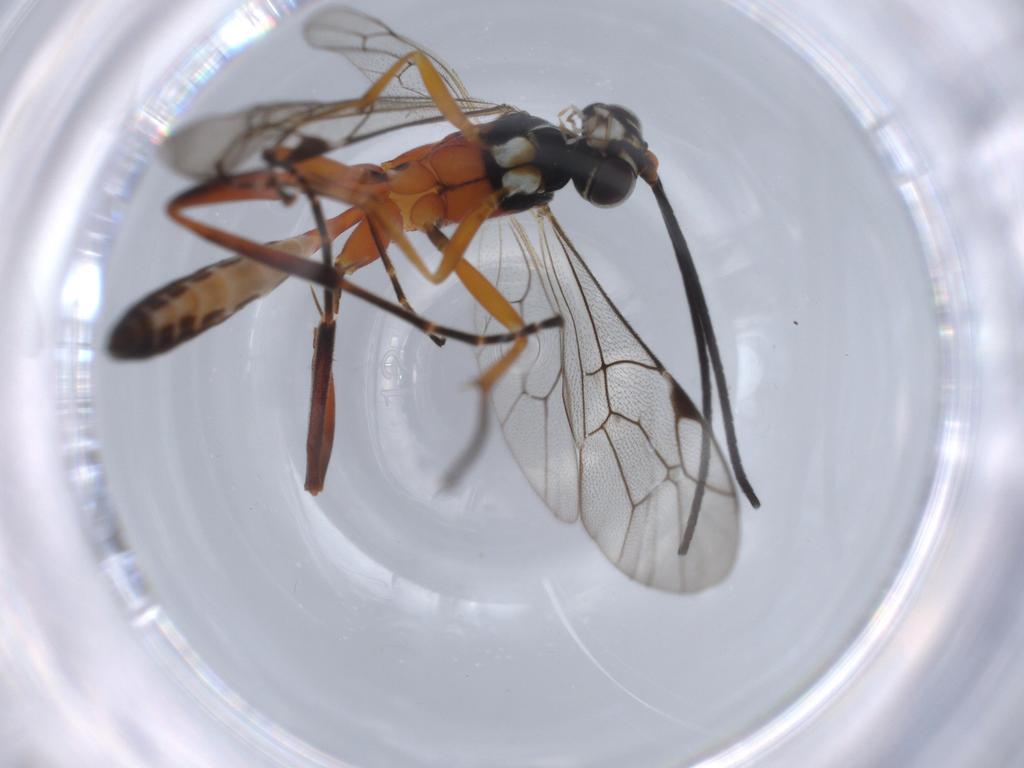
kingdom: Animalia
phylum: Arthropoda
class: Insecta
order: Hymenoptera
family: Ichneumonidae
